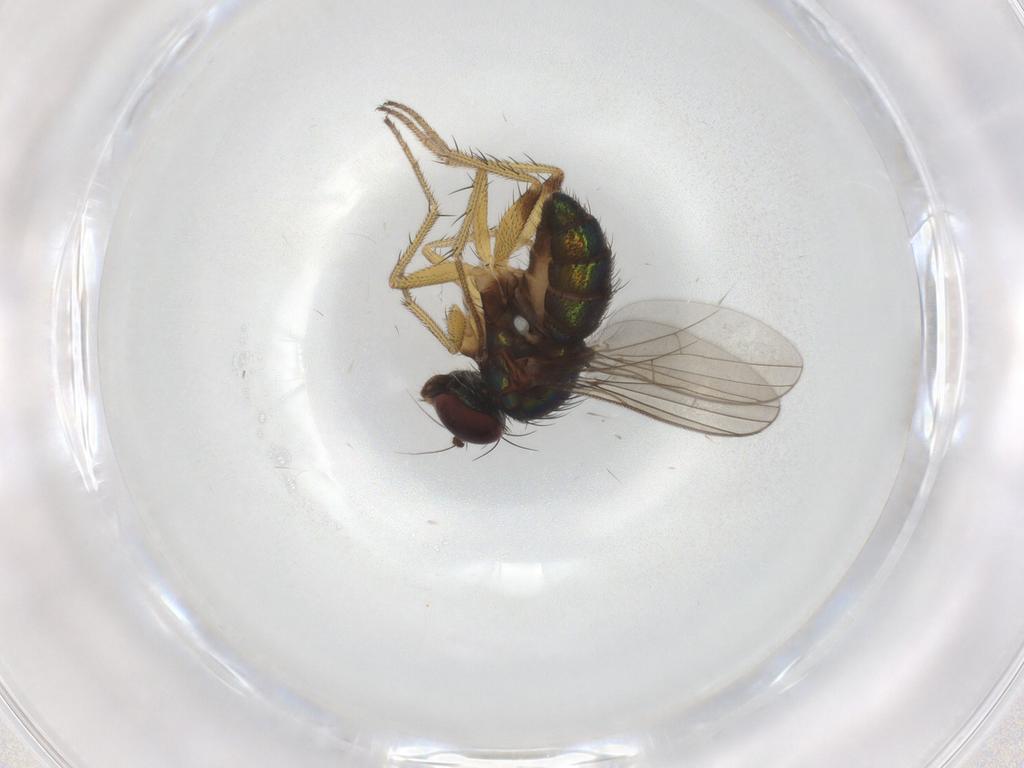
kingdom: Animalia
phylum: Arthropoda
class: Insecta
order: Diptera
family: Dolichopodidae
